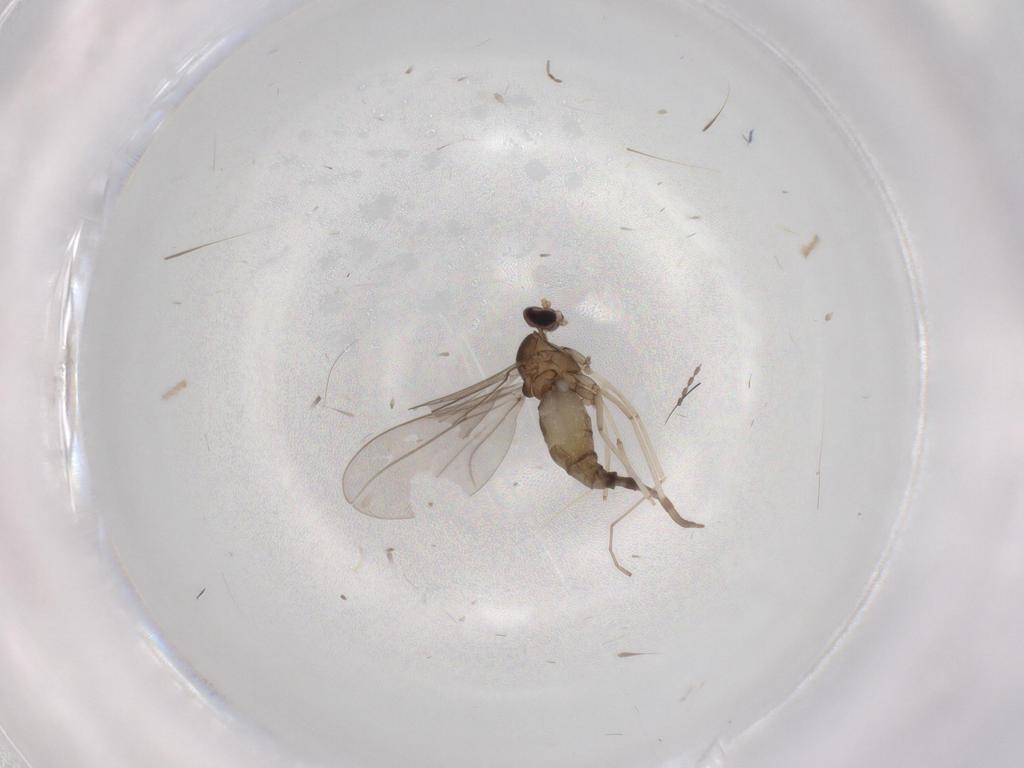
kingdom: Animalia
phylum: Arthropoda
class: Insecta
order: Diptera
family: Cecidomyiidae
